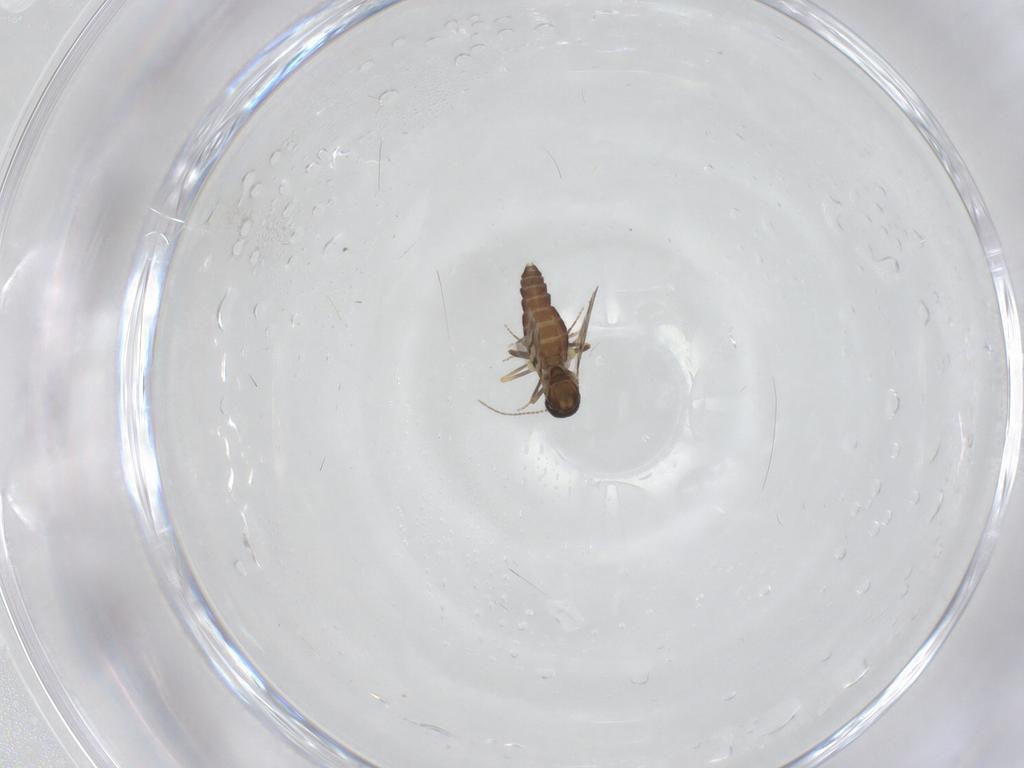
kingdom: Animalia
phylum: Arthropoda
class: Insecta
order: Diptera
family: Ceratopogonidae
